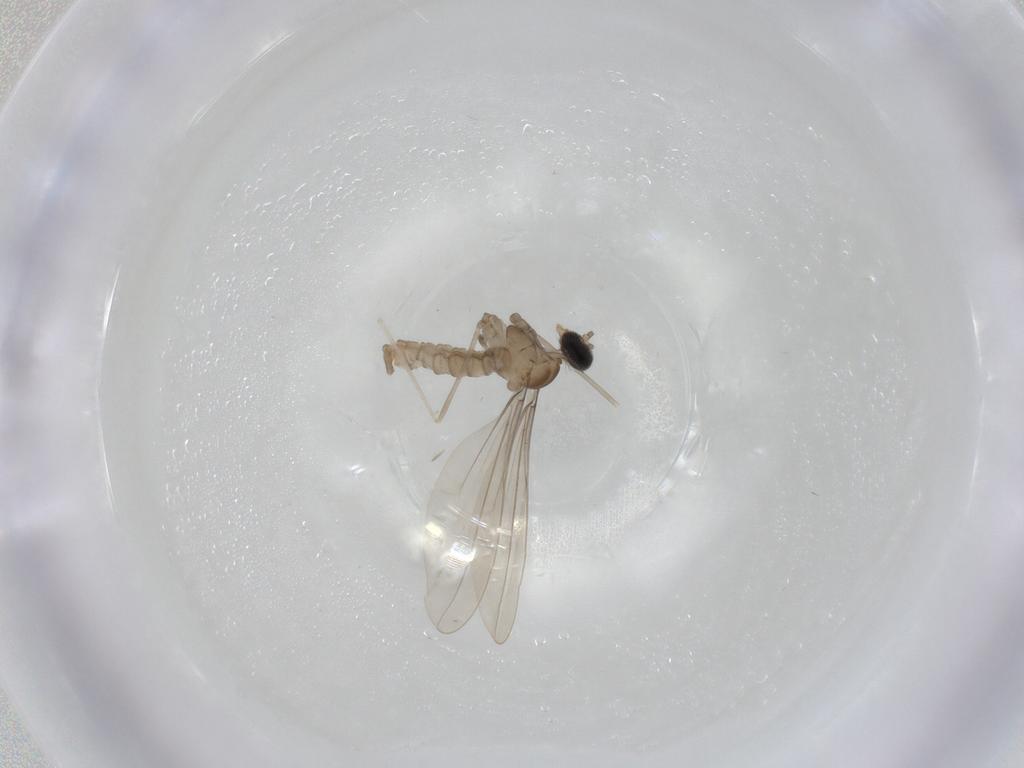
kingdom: Animalia
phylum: Arthropoda
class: Insecta
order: Diptera
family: Cecidomyiidae
